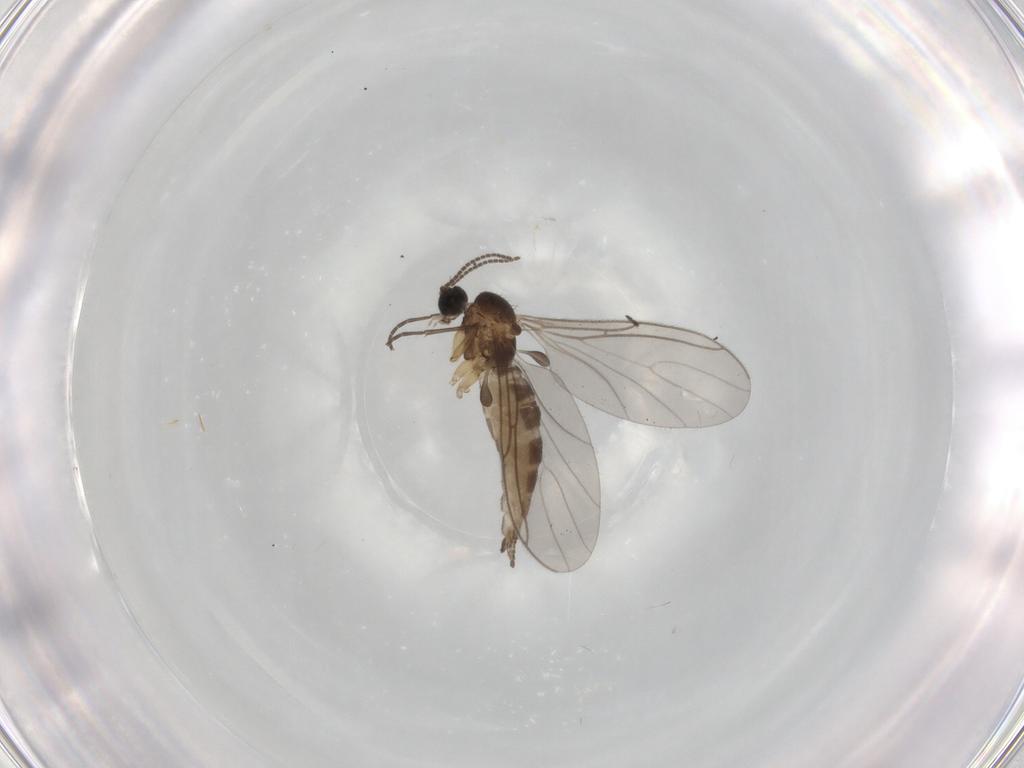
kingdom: Animalia
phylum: Arthropoda
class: Insecta
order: Diptera
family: Sciaridae
